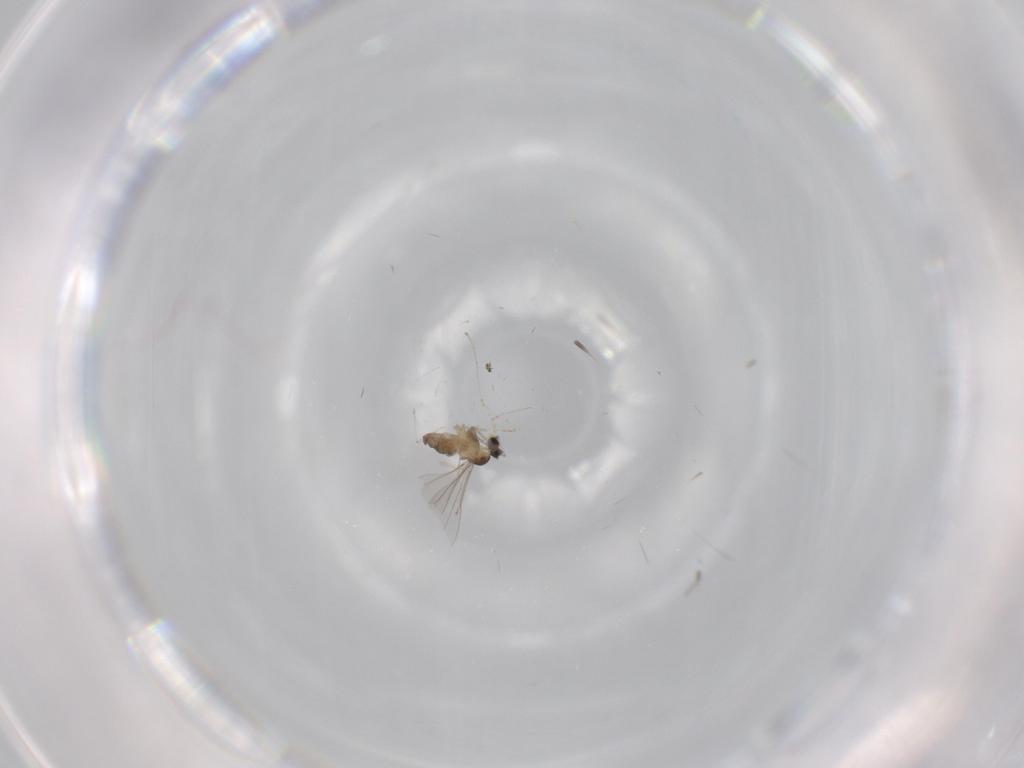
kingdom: Animalia
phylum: Arthropoda
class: Insecta
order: Diptera
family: Cecidomyiidae
